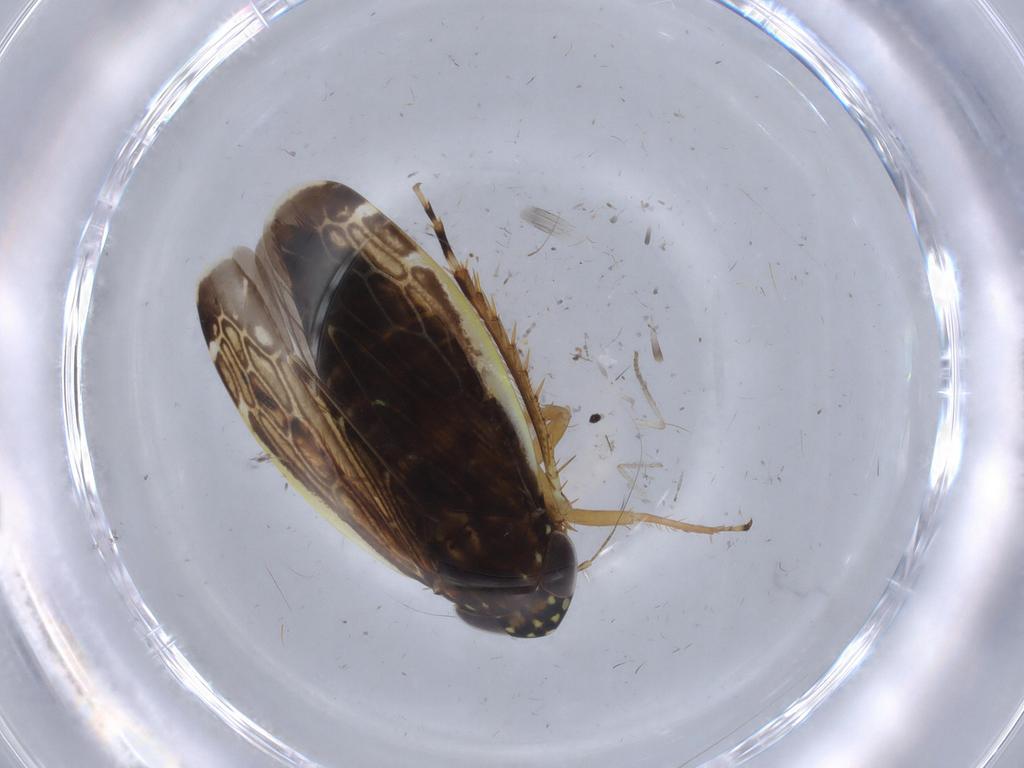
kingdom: Animalia
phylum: Arthropoda
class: Insecta
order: Hemiptera
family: Cicadellidae
